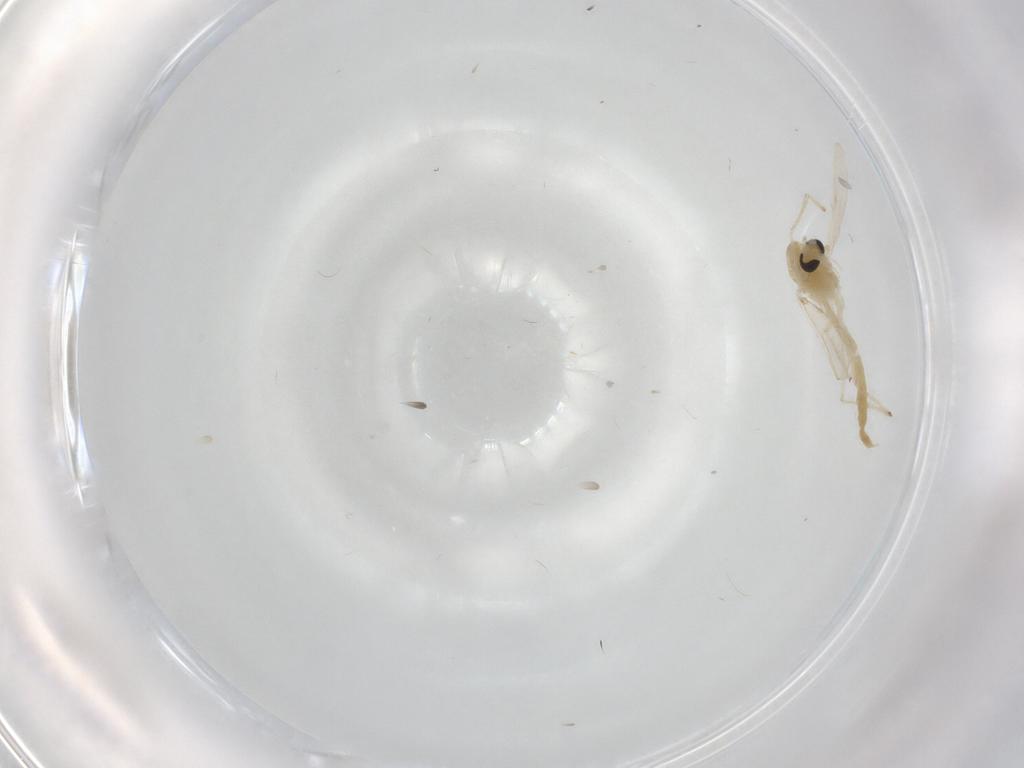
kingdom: Animalia
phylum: Arthropoda
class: Insecta
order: Diptera
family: Chironomidae
